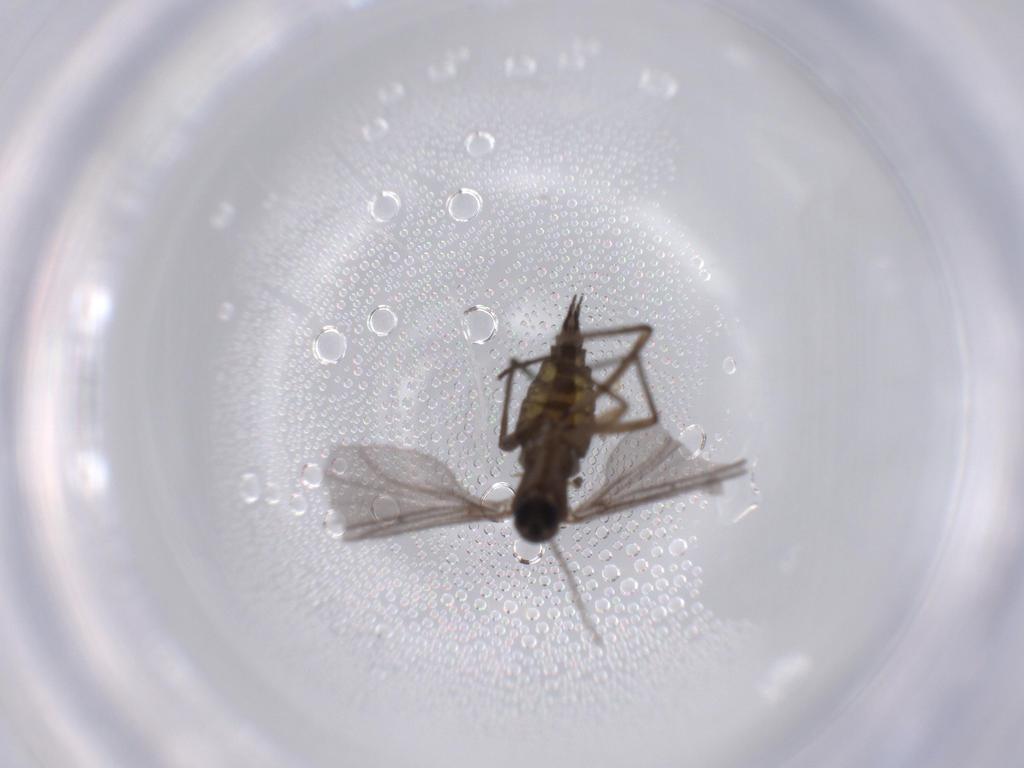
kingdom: Animalia
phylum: Arthropoda
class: Insecta
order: Diptera
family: Sciaridae
